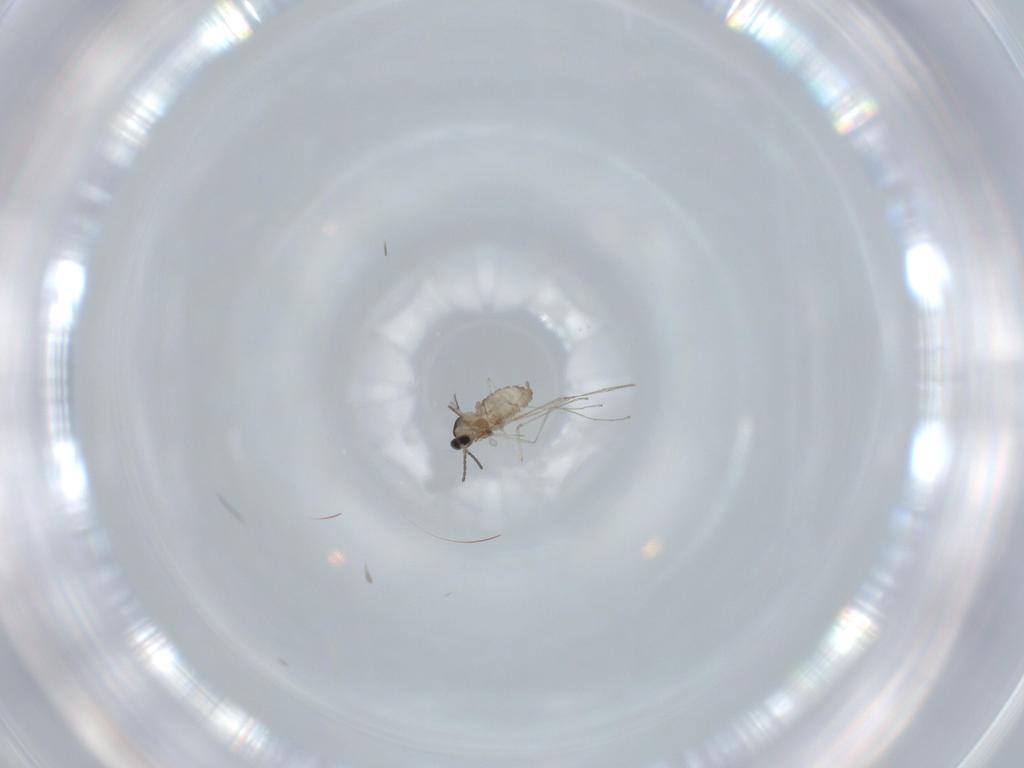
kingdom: Animalia
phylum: Arthropoda
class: Insecta
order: Diptera
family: Cecidomyiidae
